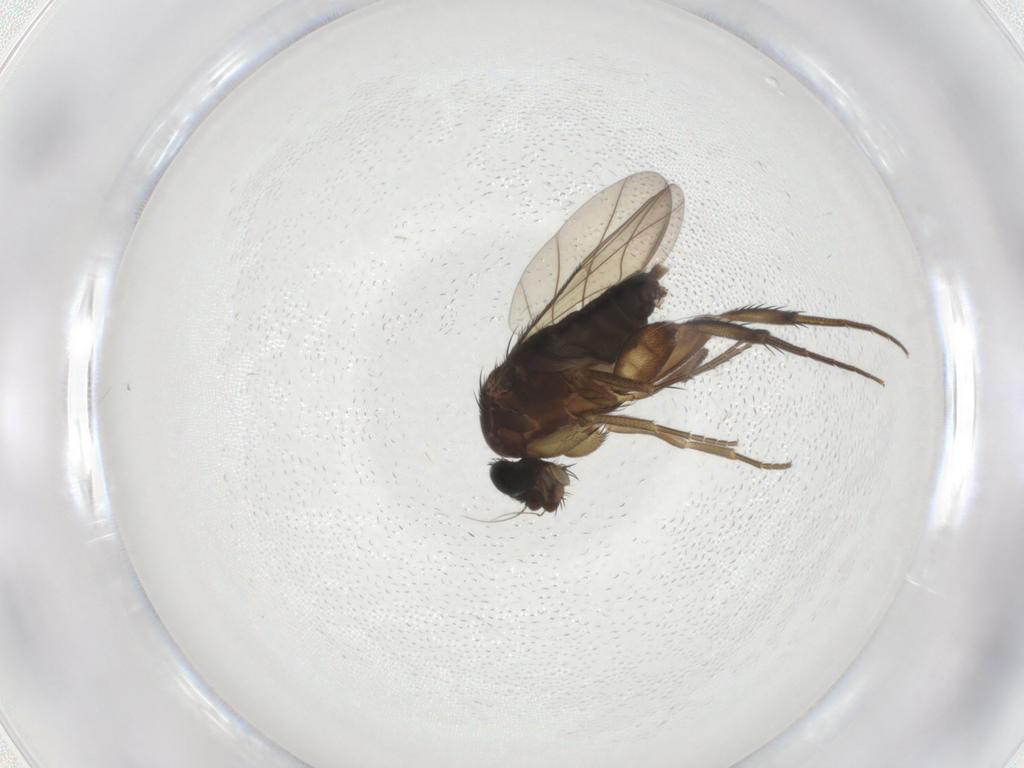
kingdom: Animalia
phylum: Arthropoda
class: Insecta
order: Diptera
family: Phoridae
